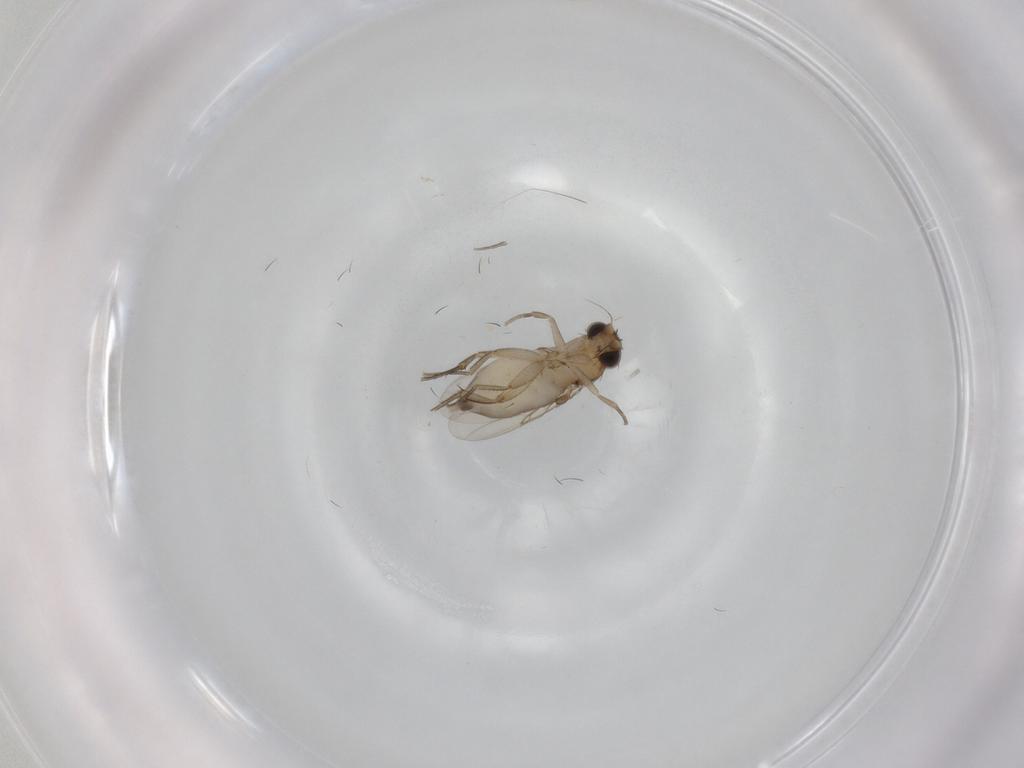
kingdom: Animalia
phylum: Arthropoda
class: Insecta
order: Diptera
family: Phoridae
